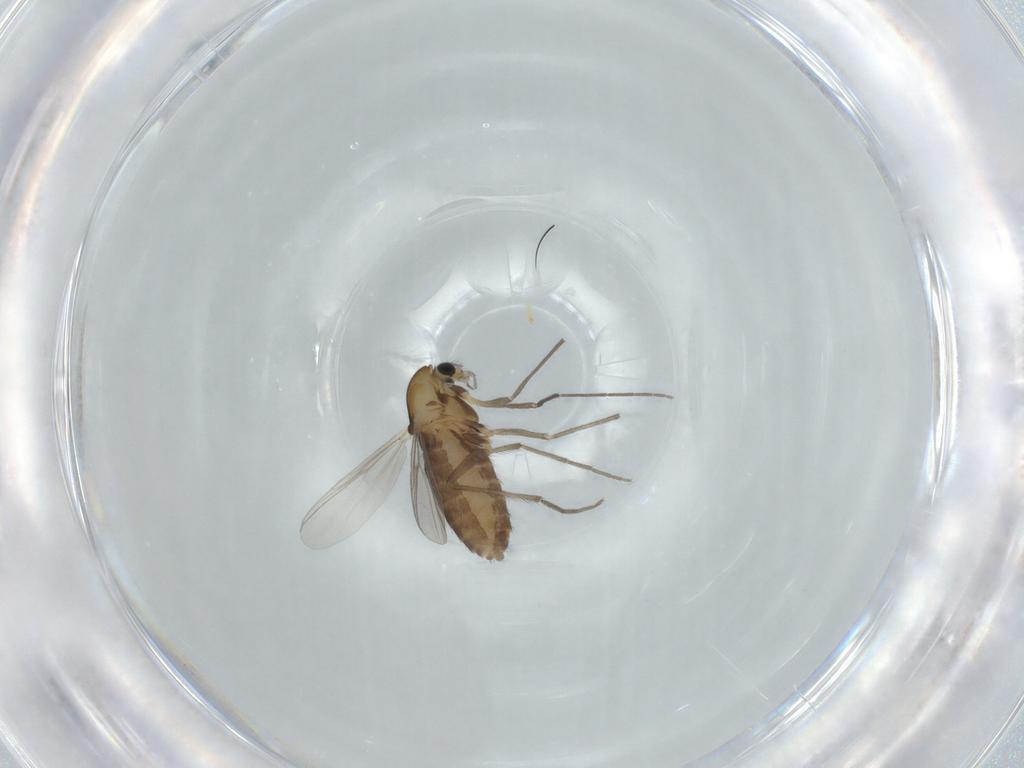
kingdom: Animalia
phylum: Arthropoda
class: Insecta
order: Diptera
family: Chironomidae
